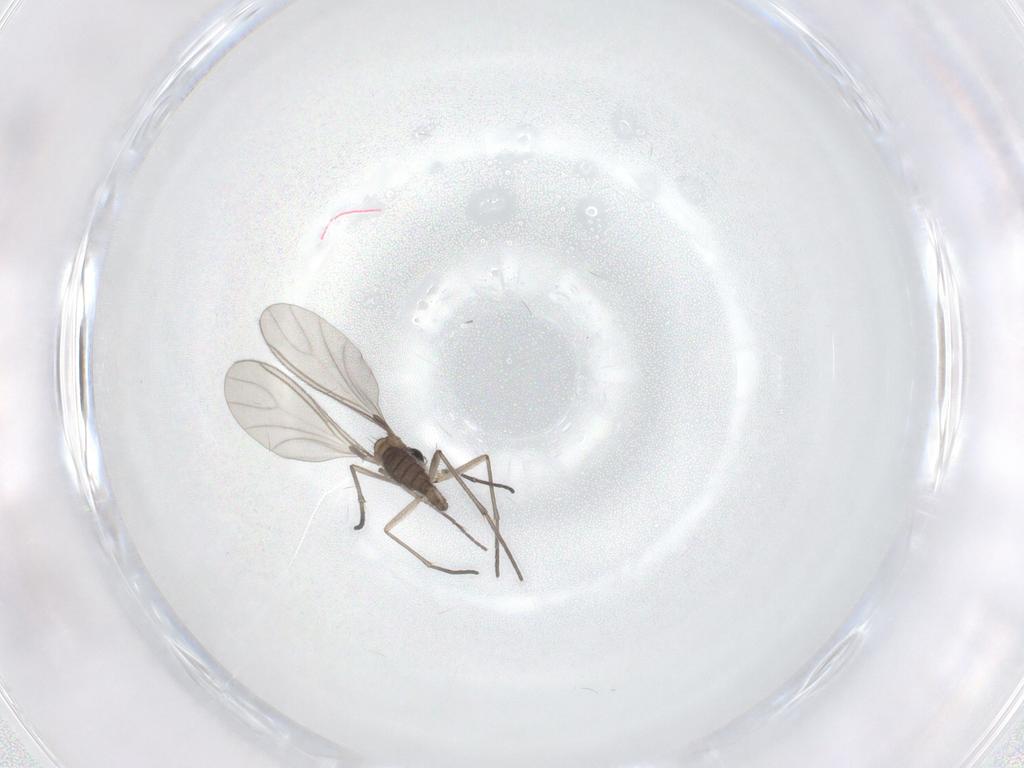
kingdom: Animalia
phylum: Arthropoda
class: Insecta
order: Diptera
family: Sciaridae
